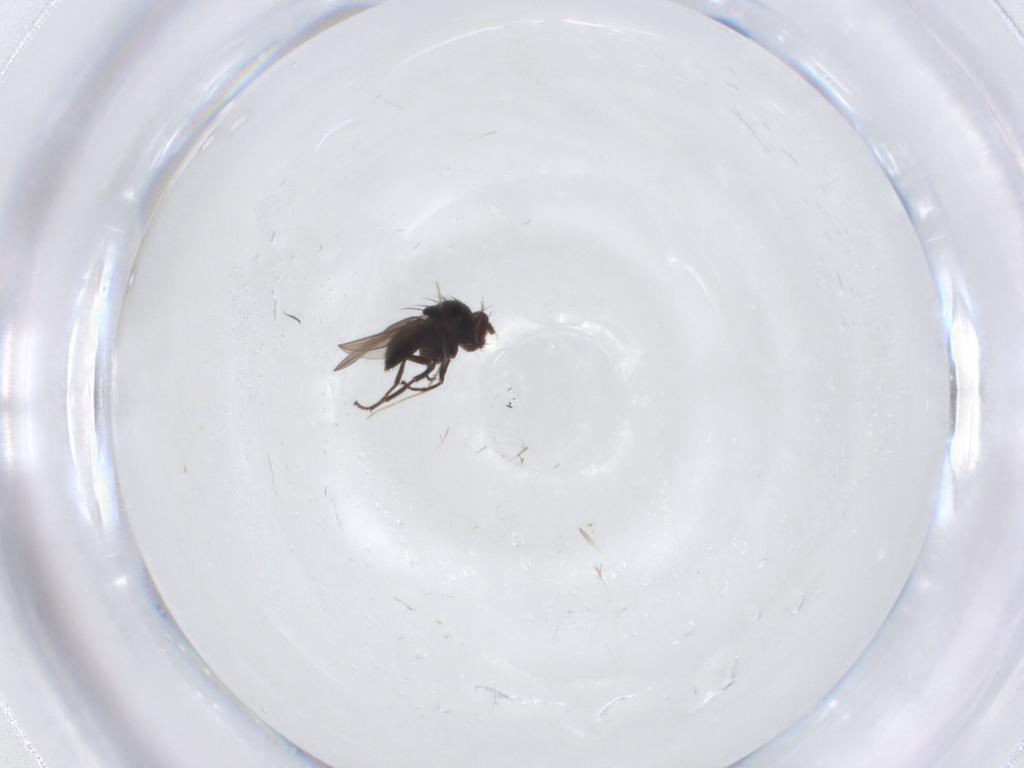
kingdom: Animalia
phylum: Arthropoda
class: Insecta
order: Diptera
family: Ephydridae
